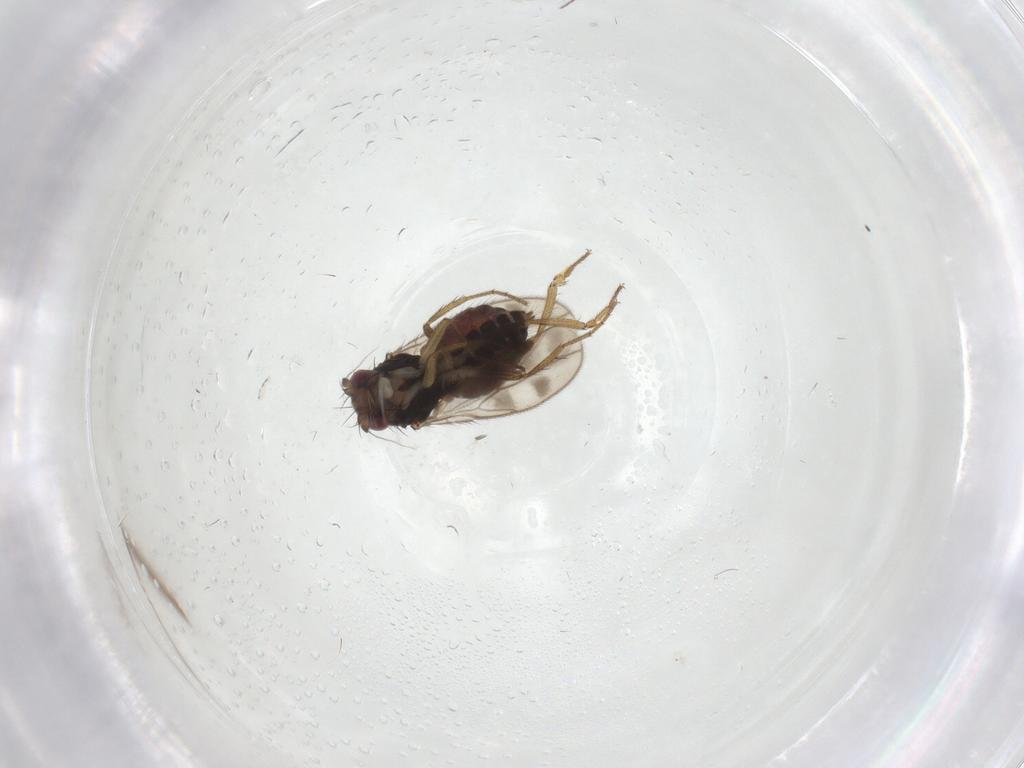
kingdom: Animalia
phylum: Arthropoda
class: Insecta
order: Diptera
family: Sphaeroceridae
